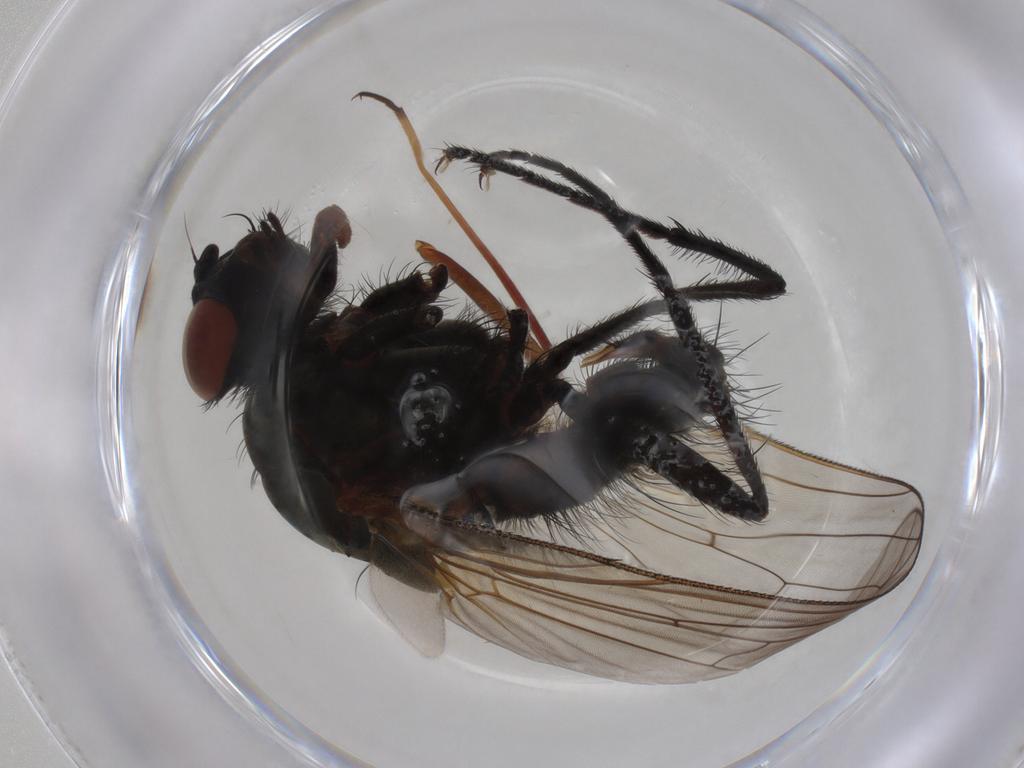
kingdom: Animalia
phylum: Arthropoda
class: Insecta
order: Diptera
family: Anthomyiidae
